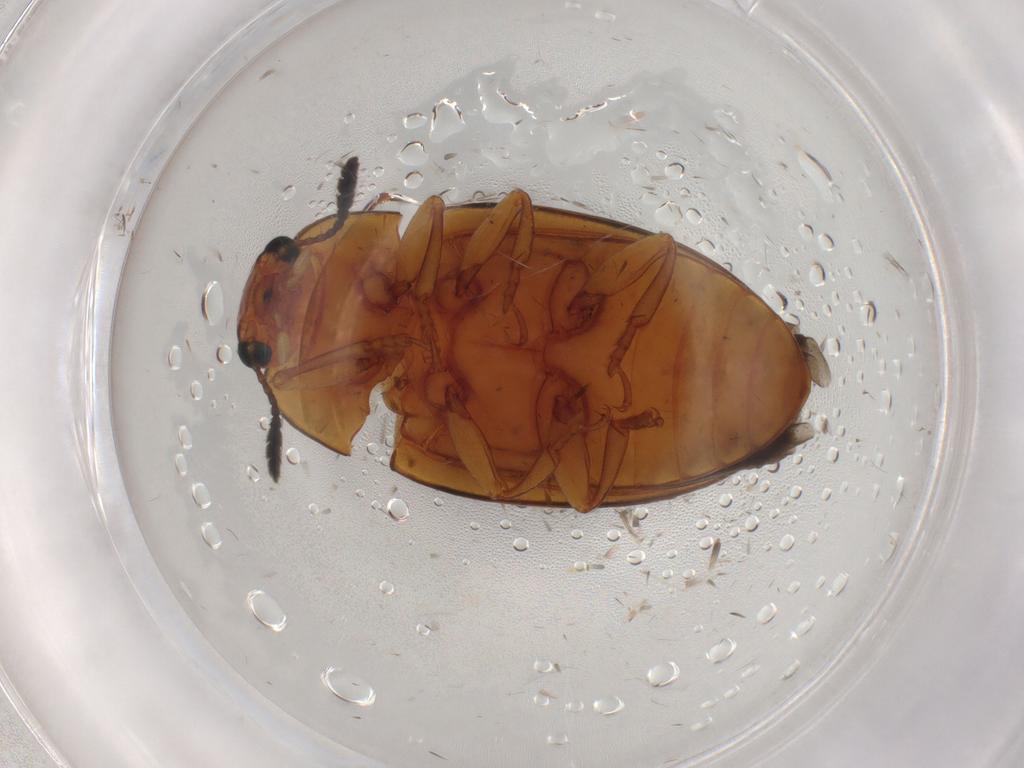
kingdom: Animalia
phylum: Arthropoda
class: Insecta
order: Coleoptera
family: Erotylidae
